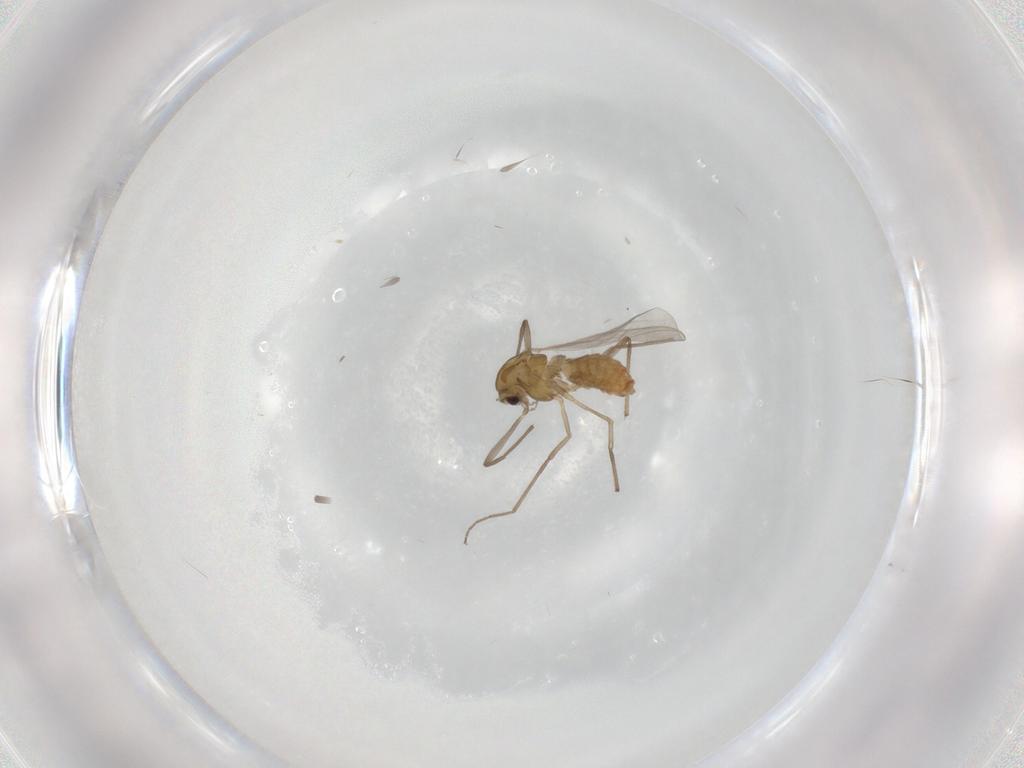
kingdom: Animalia
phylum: Arthropoda
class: Insecta
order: Diptera
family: Chironomidae
